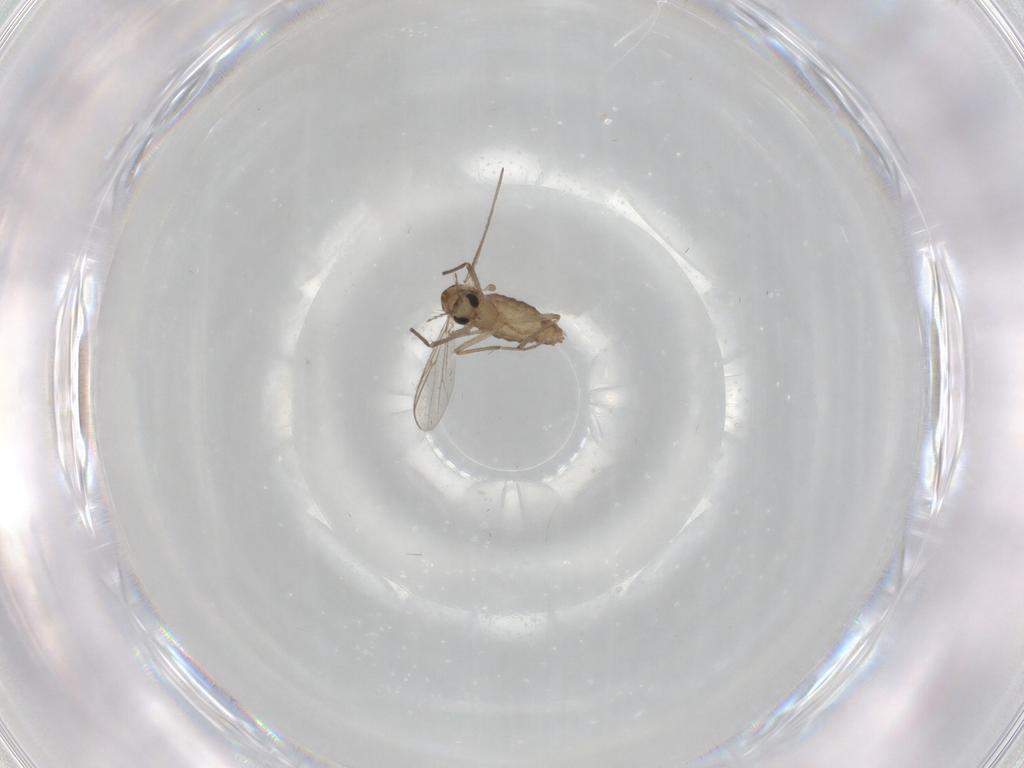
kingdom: Animalia
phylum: Arthropoda
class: Insecta
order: Diptera
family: Chironomidae
